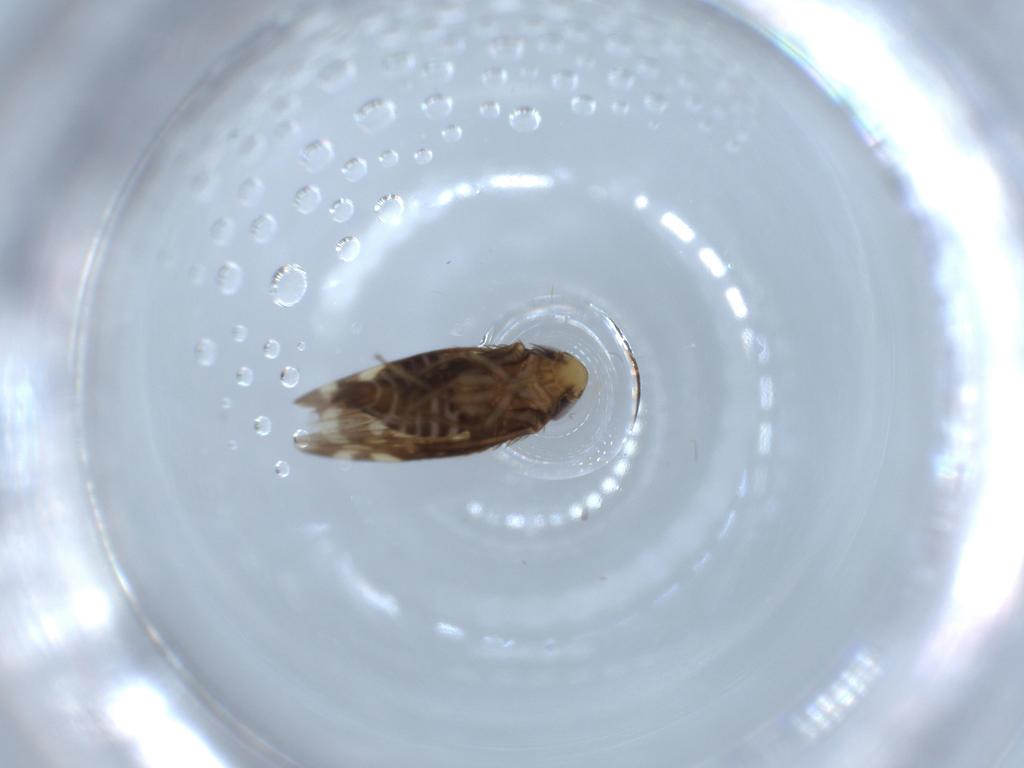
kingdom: Animalia
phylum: Arthropoda
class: Insecta
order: Hemiptera
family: Cicadellidae
